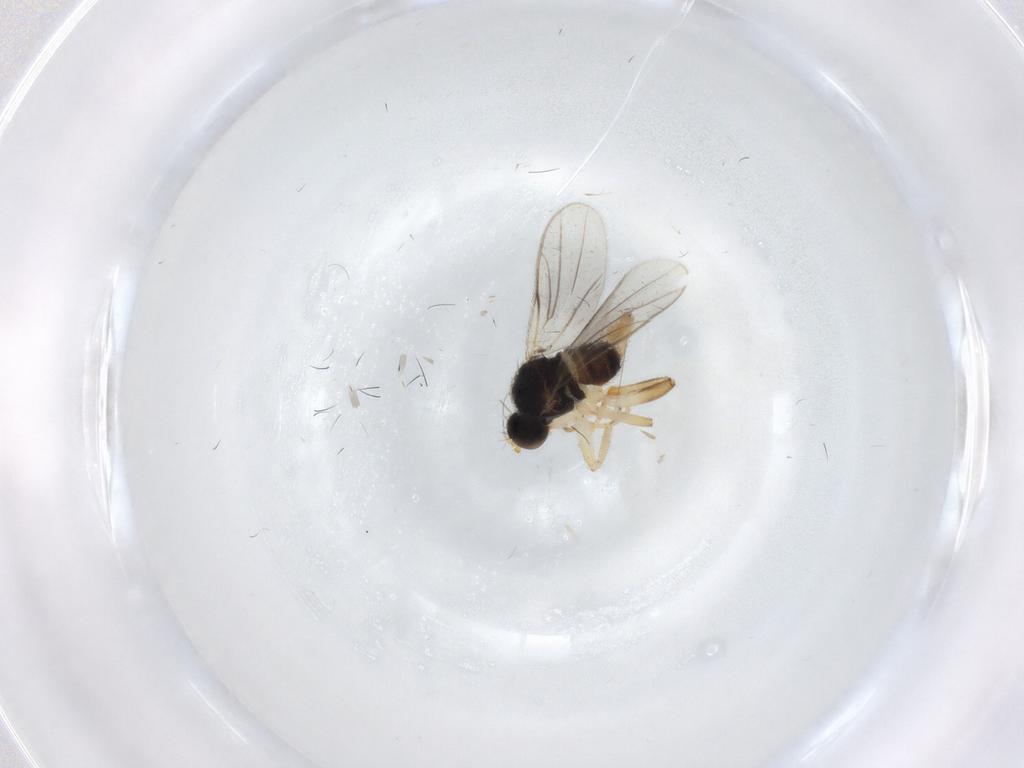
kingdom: Animalia
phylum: Arthropoda
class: Insecta
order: Diptera
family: Hybotidae
